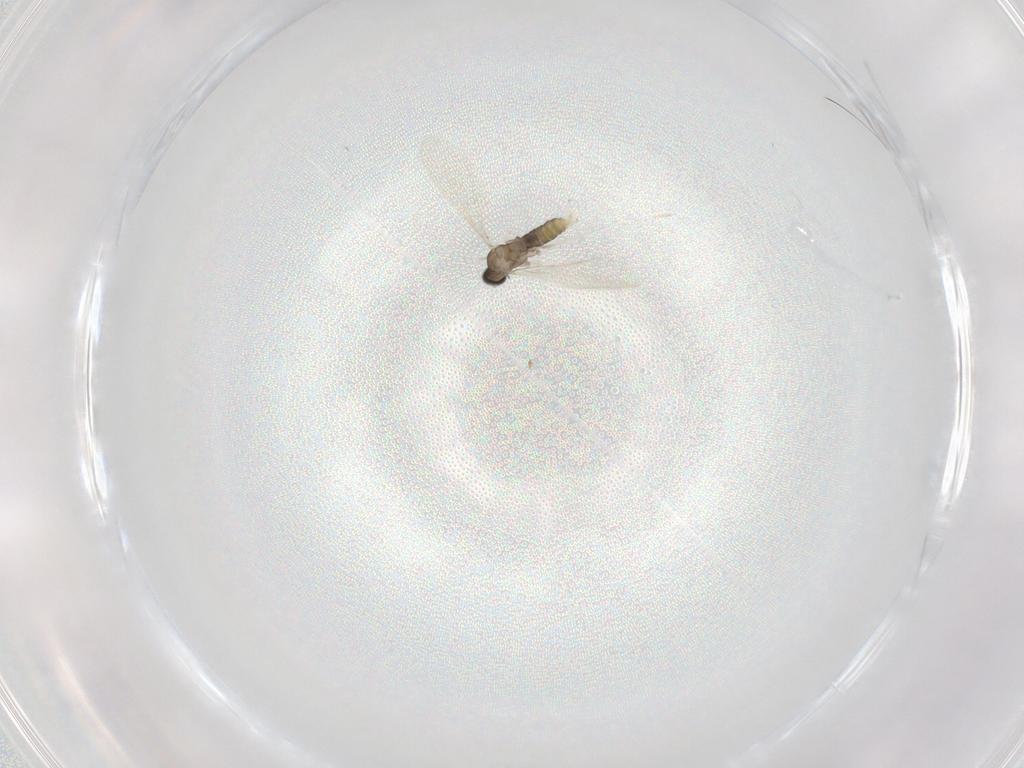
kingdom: Animalia
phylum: Arthropoda
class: Insecta
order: Diptera
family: Cecidomyiidae
